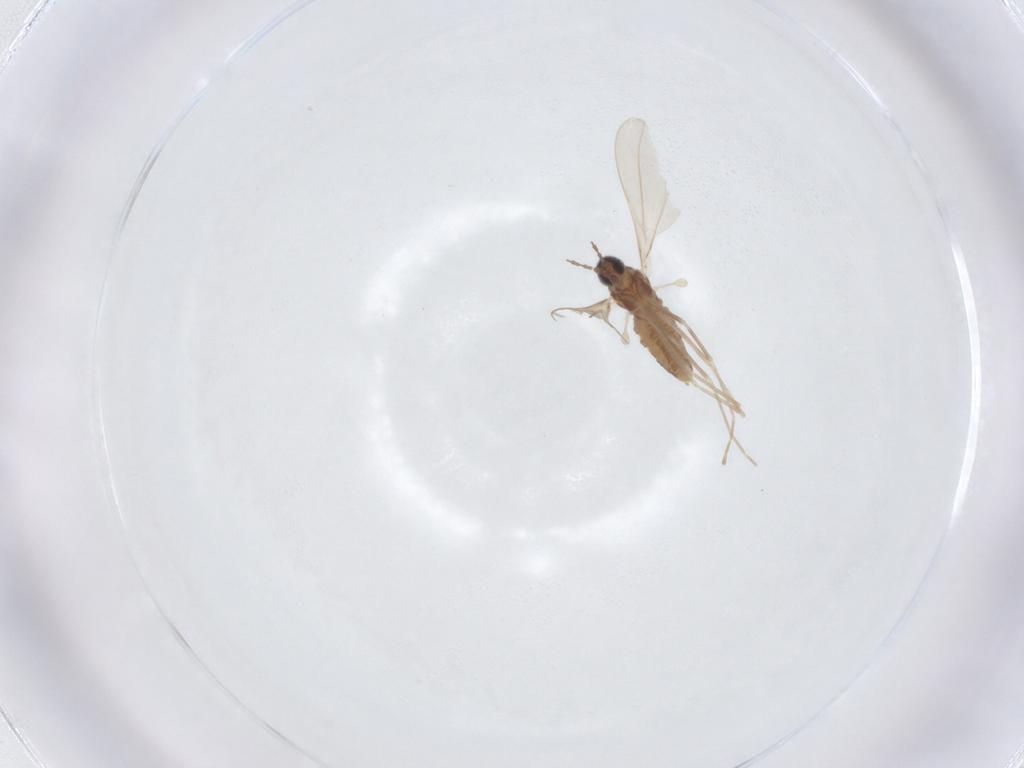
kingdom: Animalia
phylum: Arthropoda
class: Insecta
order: Diptera
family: Cecidomyiidae
